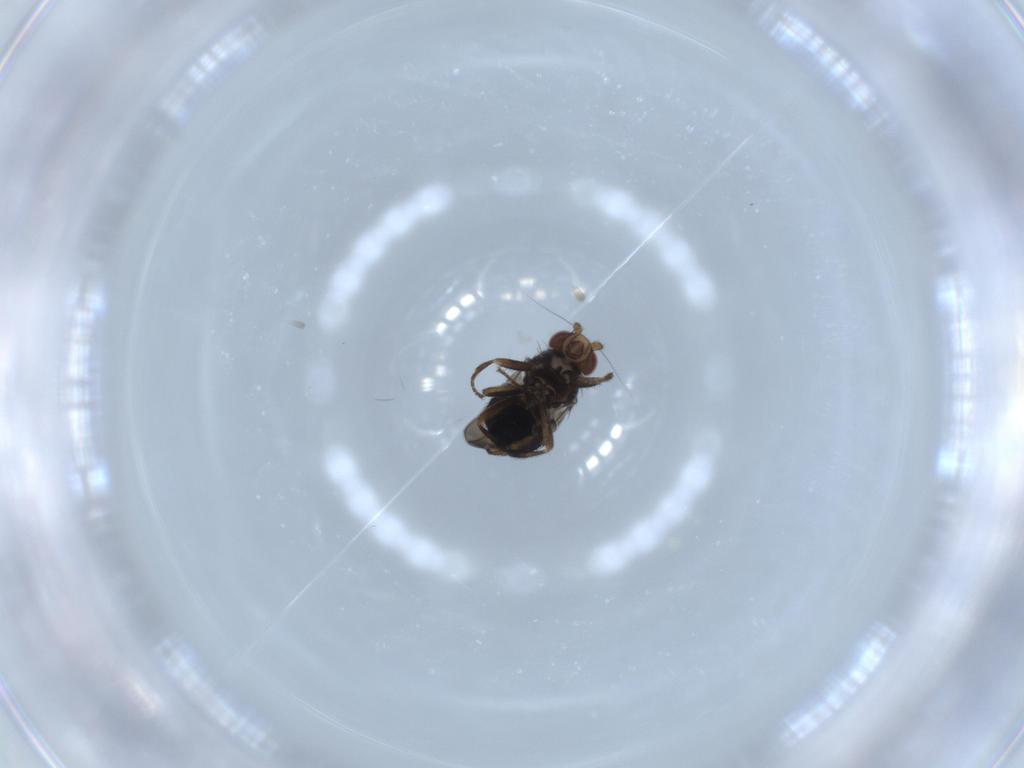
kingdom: Animalia
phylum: Arthropoda
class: Insecta
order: Diptera
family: Sphaeroceridae
